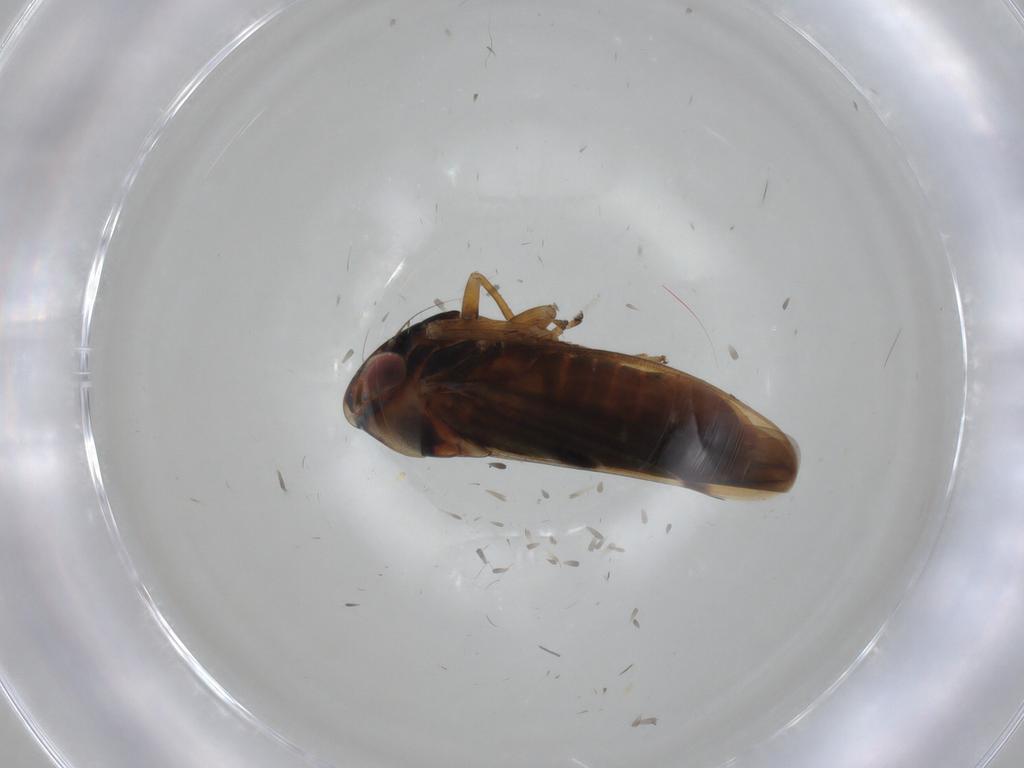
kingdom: Animalia
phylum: Arthropoda
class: Insecta
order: Hemiptera
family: Cicadellidae
